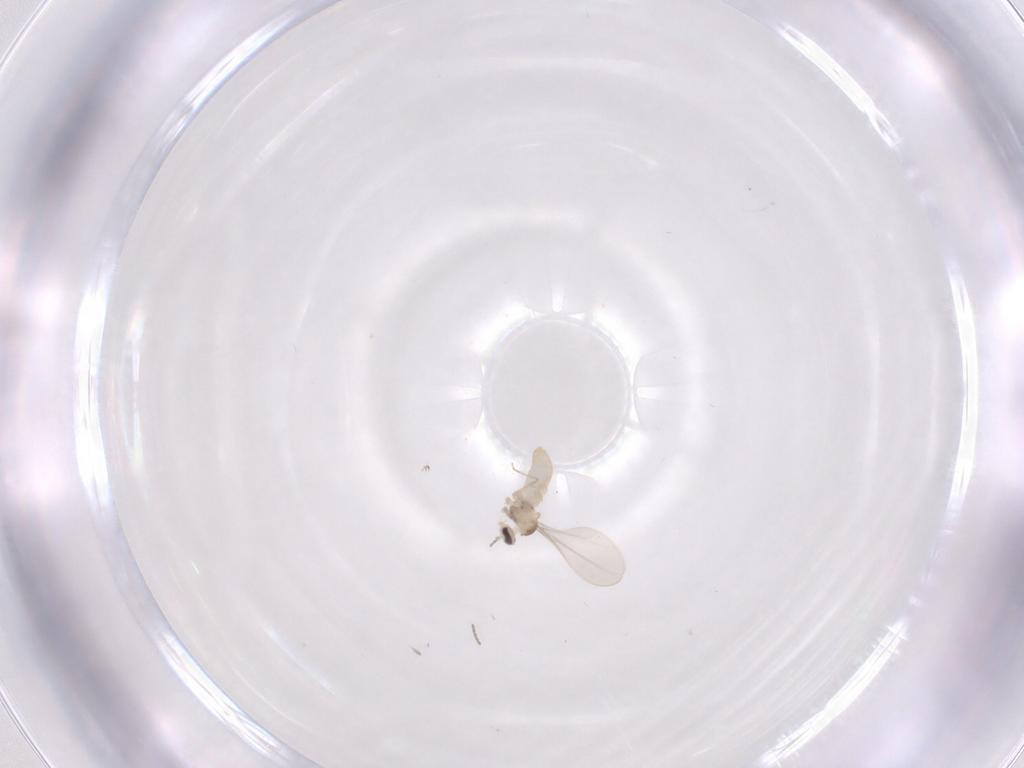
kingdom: Animalia
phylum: Arthropoda
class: Insecta
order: Diptera
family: Cecidomyiidae
